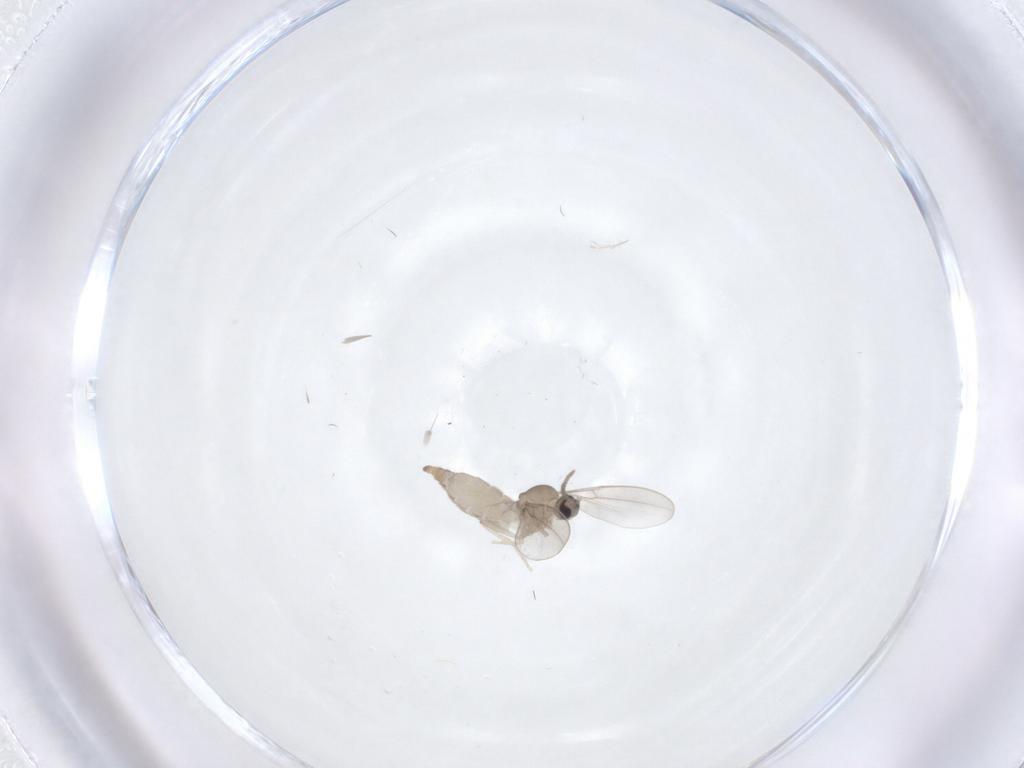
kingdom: Animalia
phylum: Arthropoda
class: Insecta
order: Diptera
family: Cecidomyiidae
